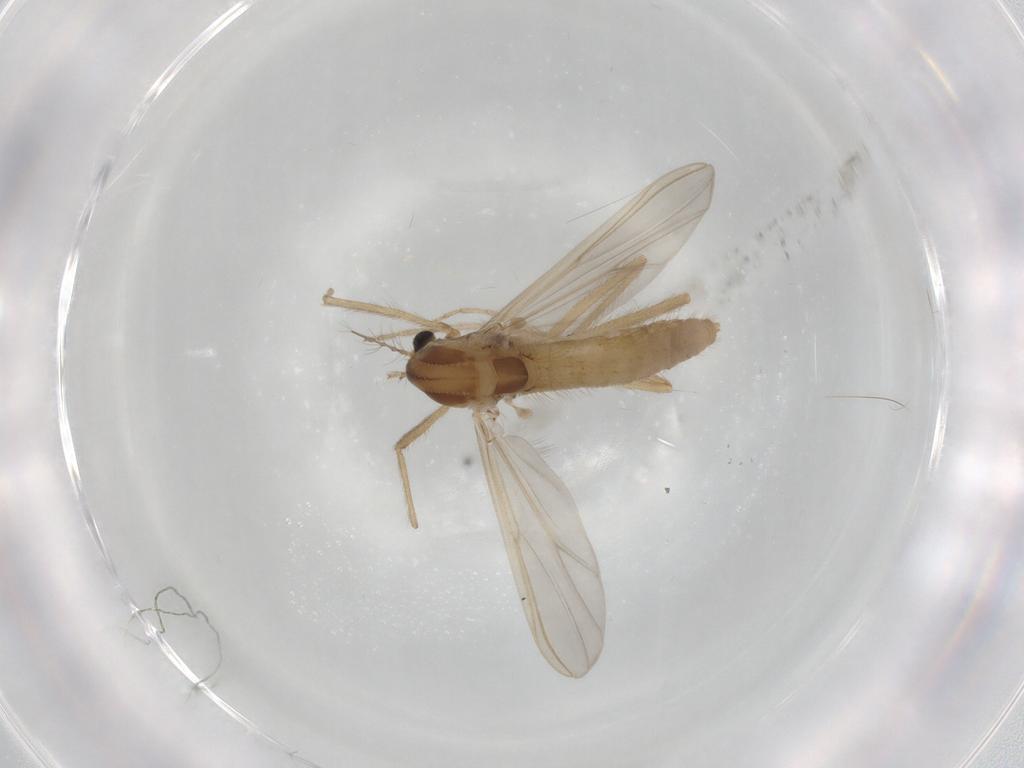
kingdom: Animalia
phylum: Arthropoda
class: Insecta
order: Diptera
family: Chironomidae
